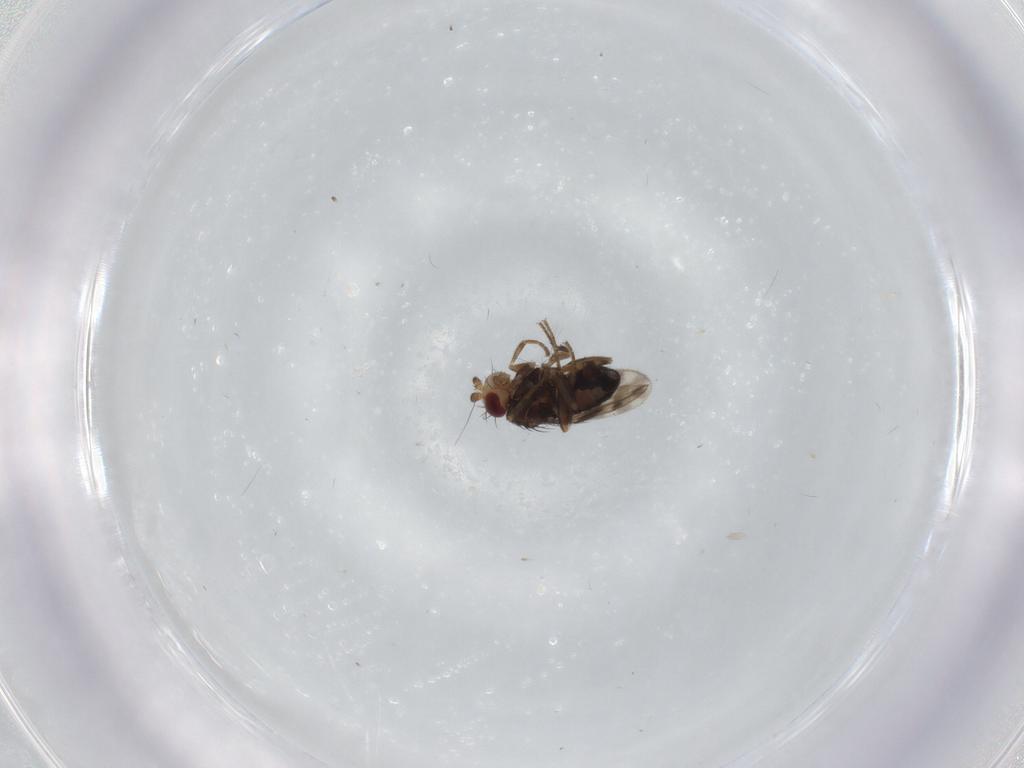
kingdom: Animalia
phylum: Arthropoda
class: Insecta
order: Diptera
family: Sphaeroceridae
